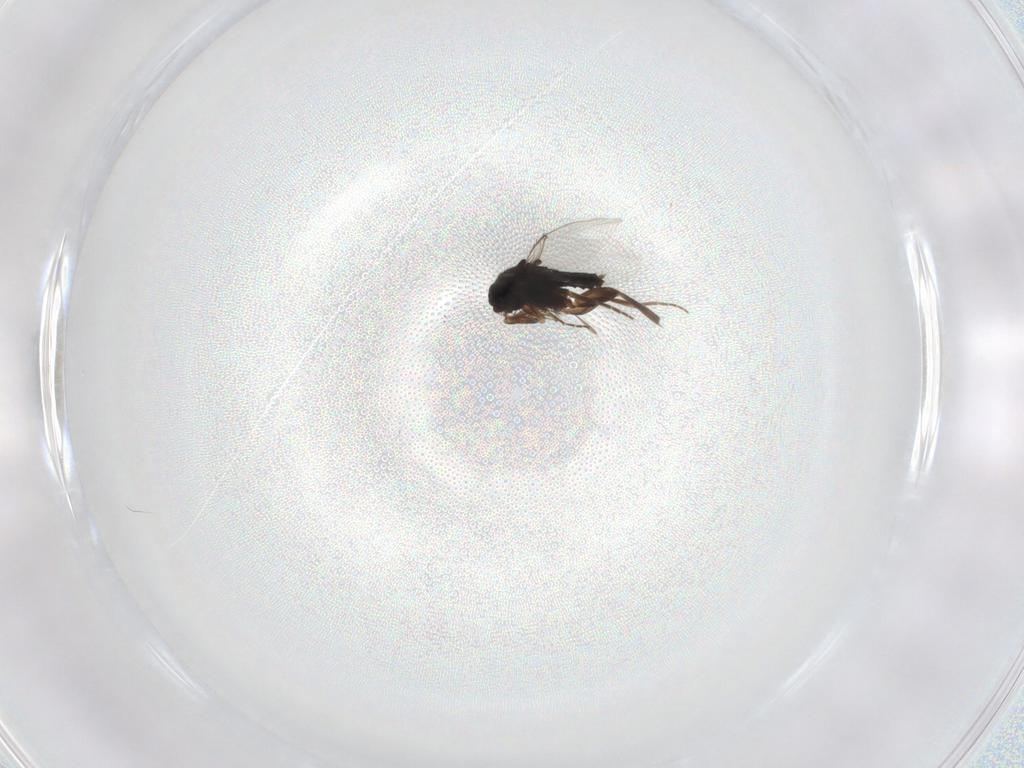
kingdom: Animalia
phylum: Arthropoda
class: Insecta
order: Diptera
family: Phoridae
